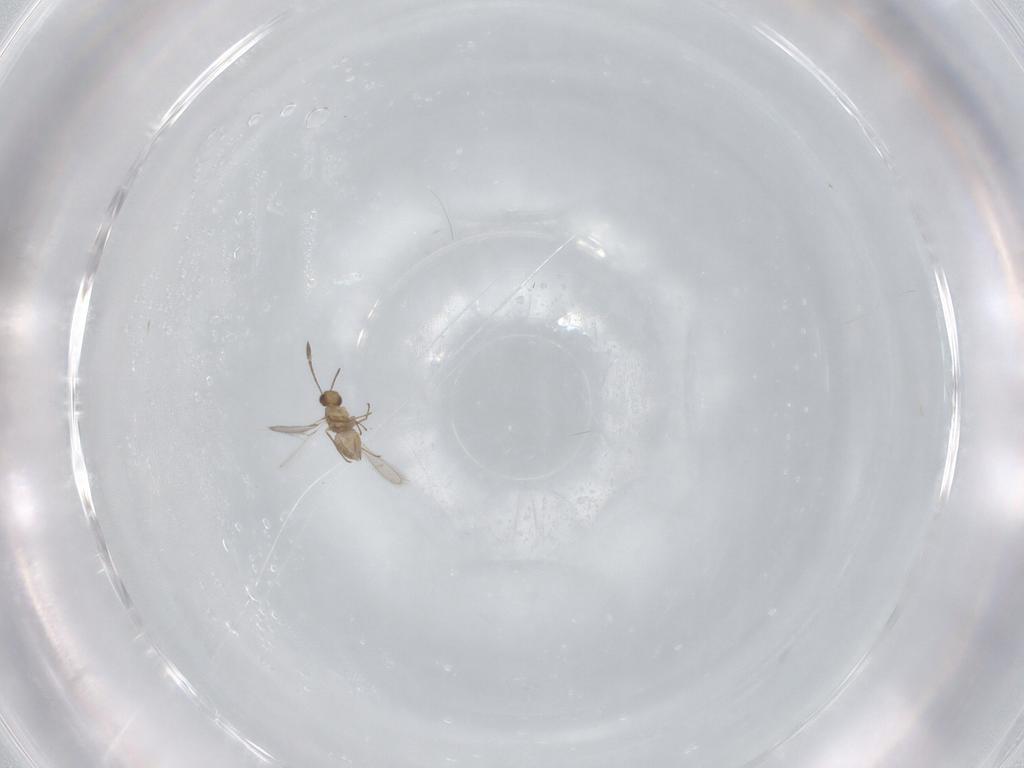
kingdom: Animalia
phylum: Arthropoda
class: Insecta
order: Hymenoptera
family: Mymaridae
